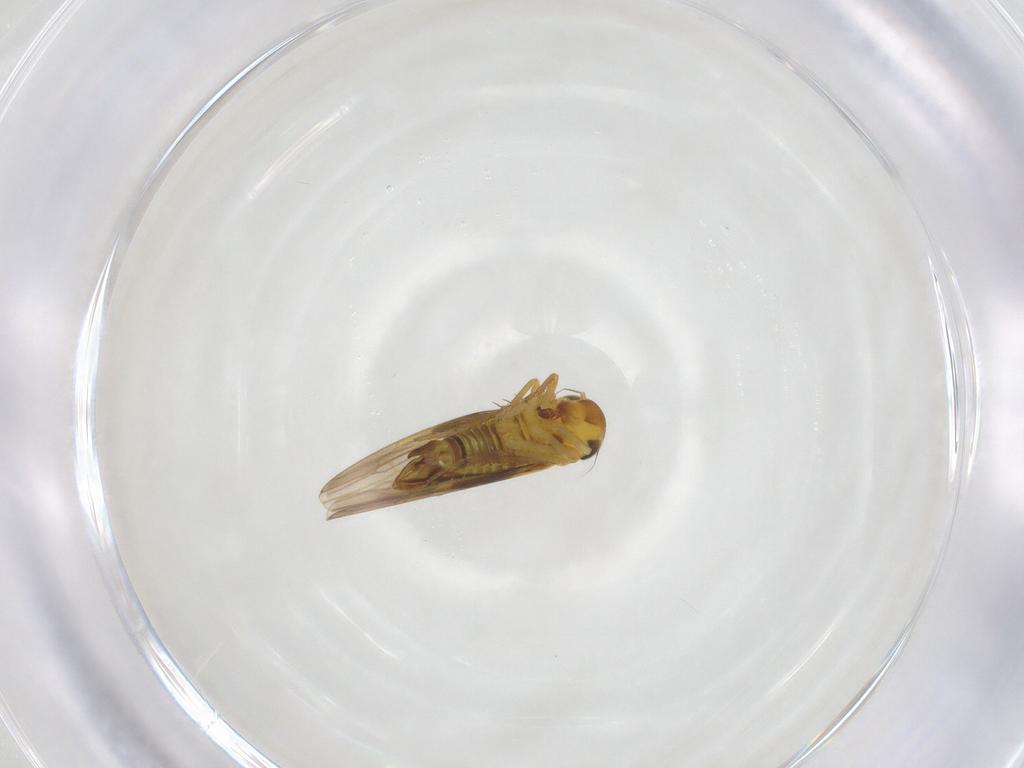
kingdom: Animalia
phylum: Arthropoda
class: Insecta
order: Hemiptera
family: Cicadellidae
